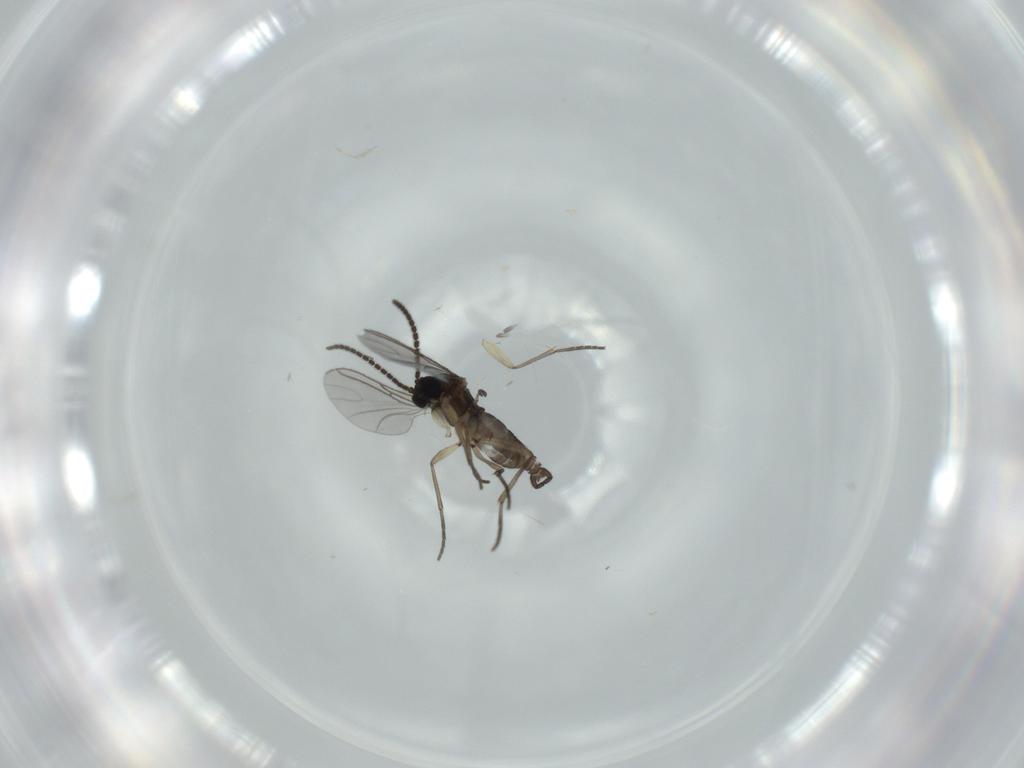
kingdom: Animalia
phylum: Arthropoda
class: Insecta
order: Diptera
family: Sciaridae
